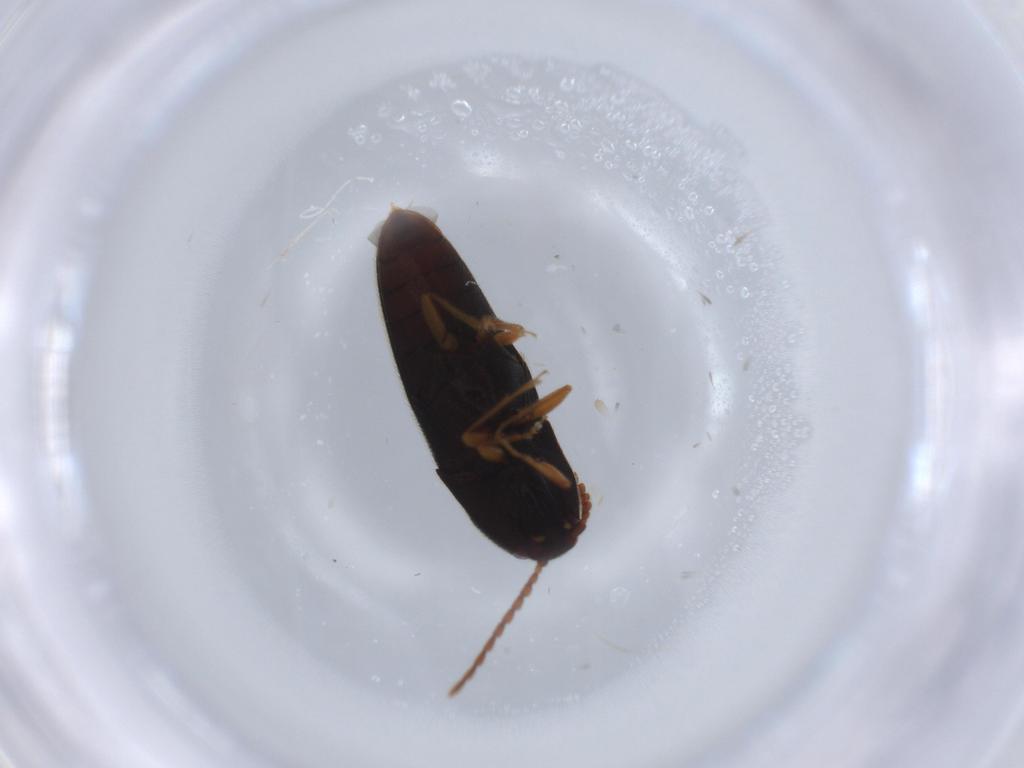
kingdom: Animalia
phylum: Arthropoda
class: Insecta
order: Coleoptera
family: Elateridae
